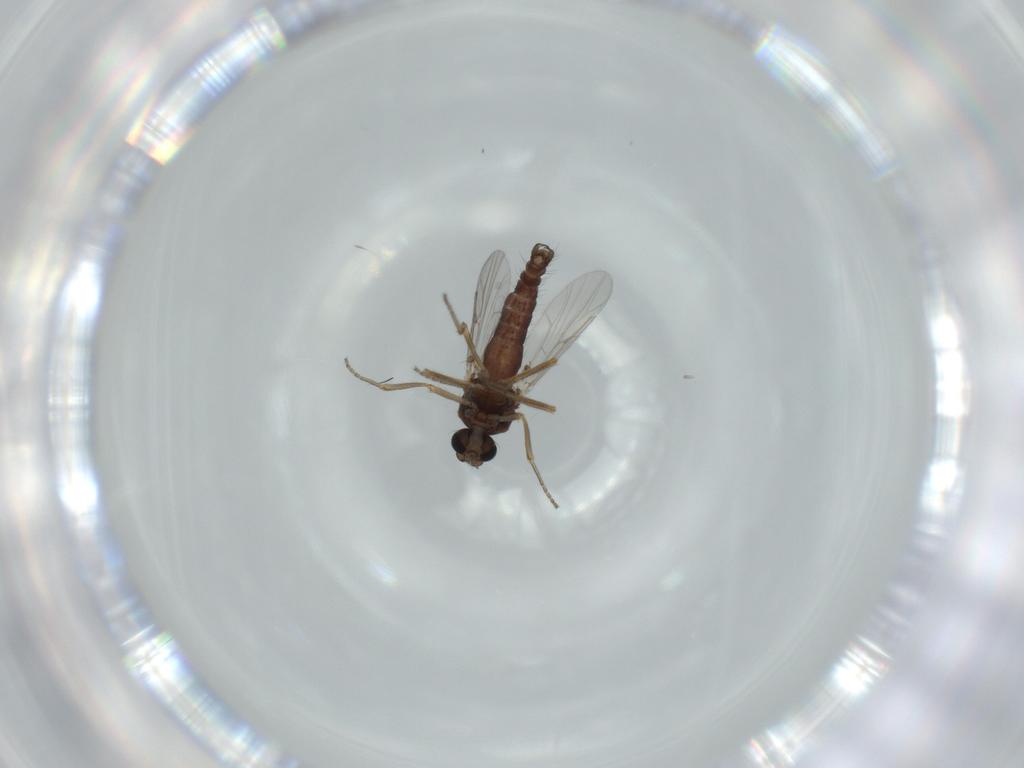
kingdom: Animalia
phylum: Arthropoda
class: Insecta
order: Diptera
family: Ceratopogonidae
